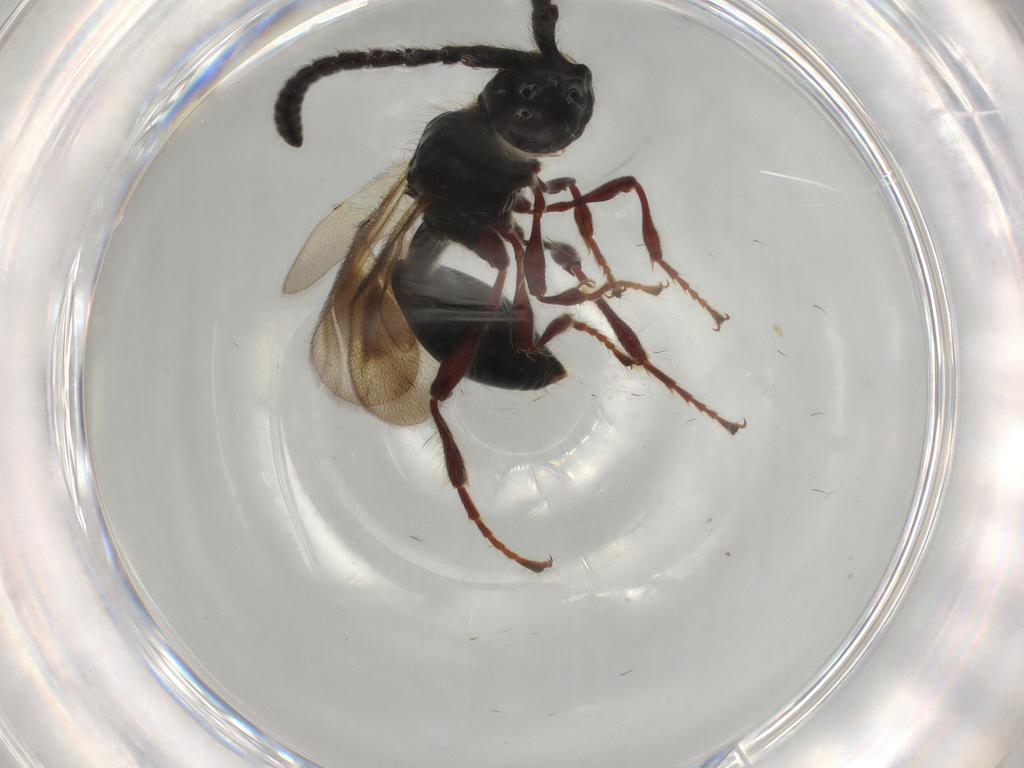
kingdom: Animalia
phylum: Arthropoda
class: Insecta
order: Hymenoptera
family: Diapriidae
